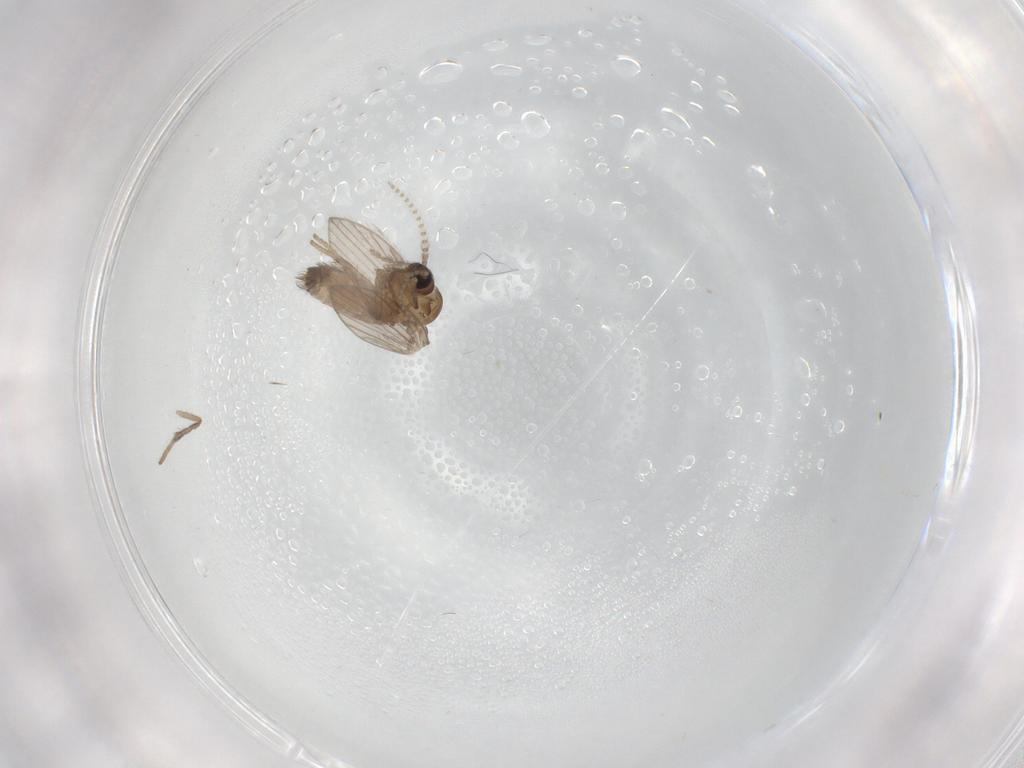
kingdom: Animalia
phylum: Arthropoda
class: Insecta
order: Diptera
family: Psychodidae
